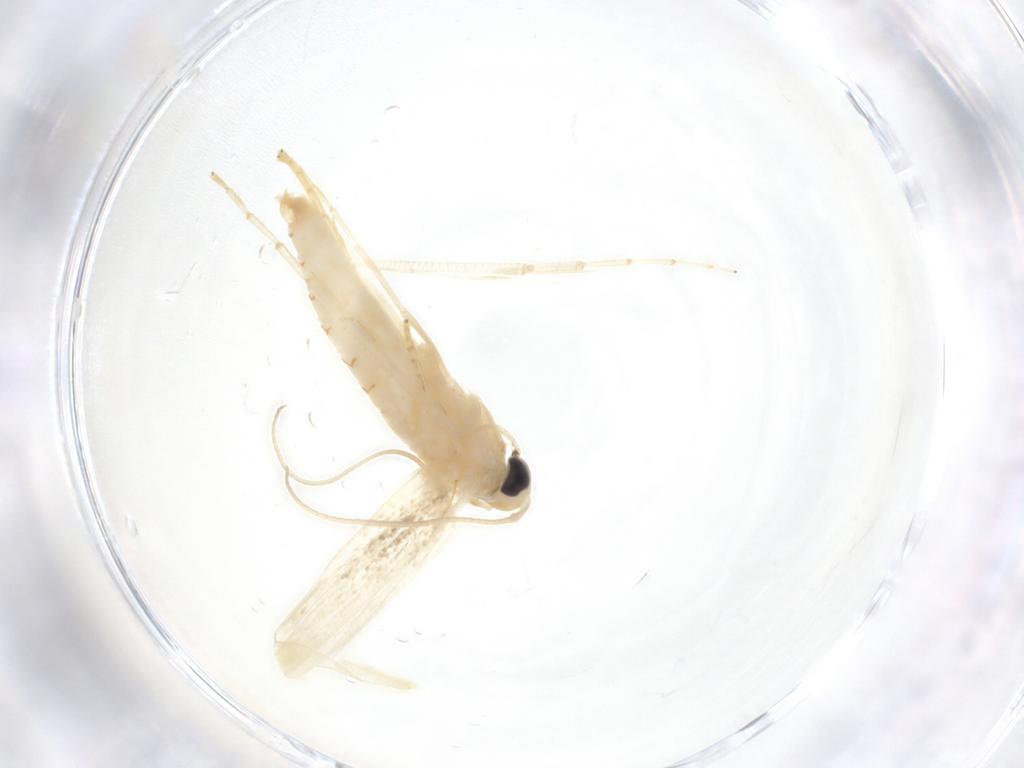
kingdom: Animalia
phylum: Arthropoda
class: Insecta
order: Lepidoptera
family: Lyonetiidae
